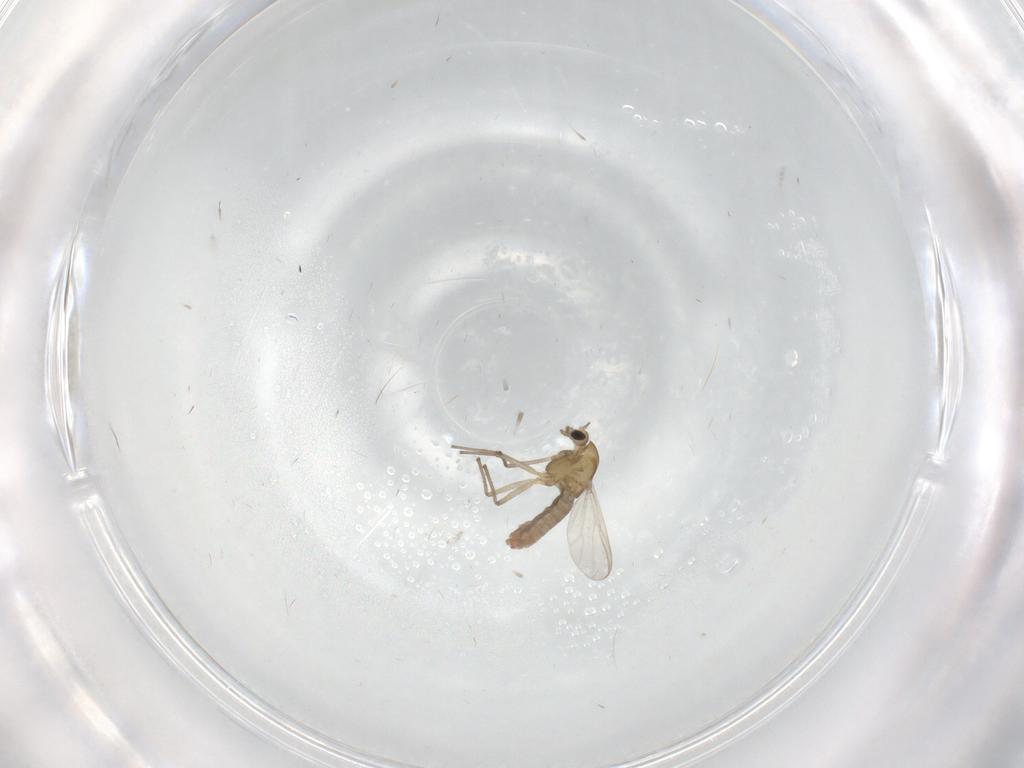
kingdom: Animalia
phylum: Arthropoda
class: Insecta
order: Diptera
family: Chironomidae
